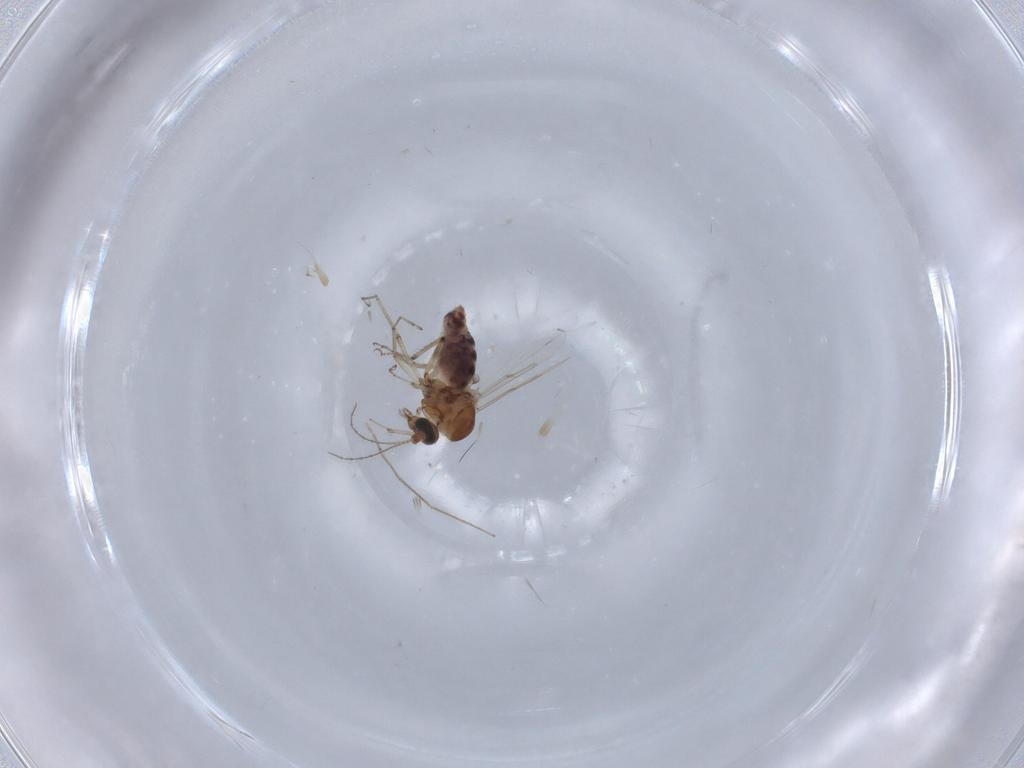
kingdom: Animalia
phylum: Arthropoda
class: Insecta
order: Diptera
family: Ceratopogonidae
